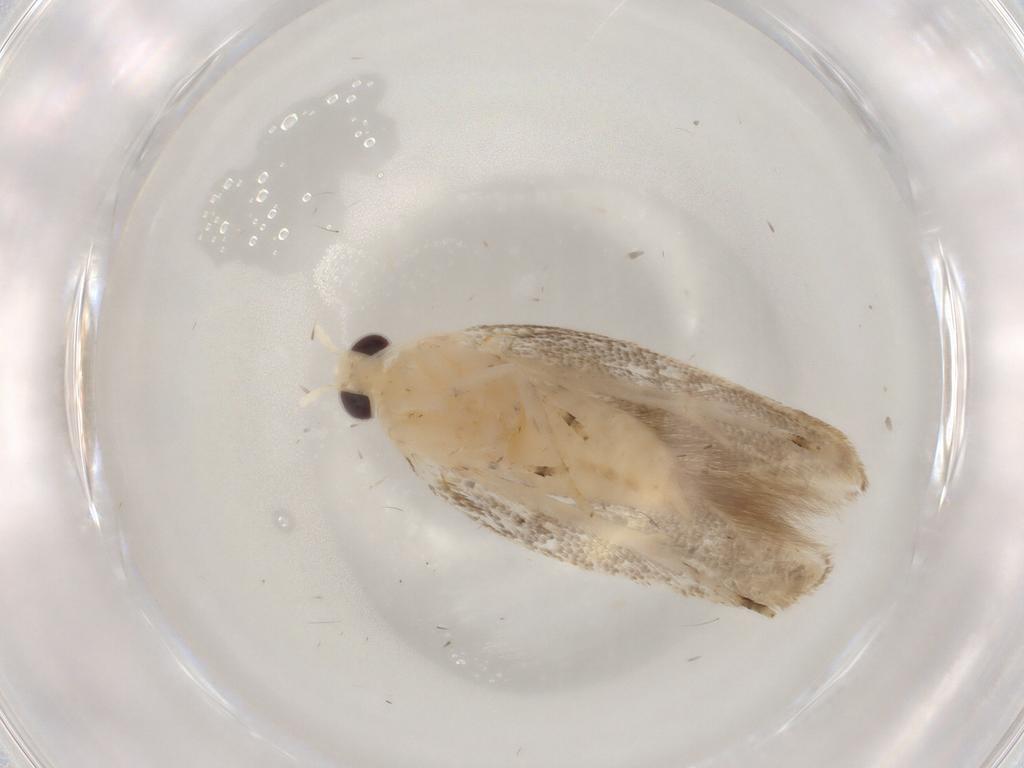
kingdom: Animalia
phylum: Arthropoda
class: Insecta
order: Lepidoptera
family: Elachistidae
